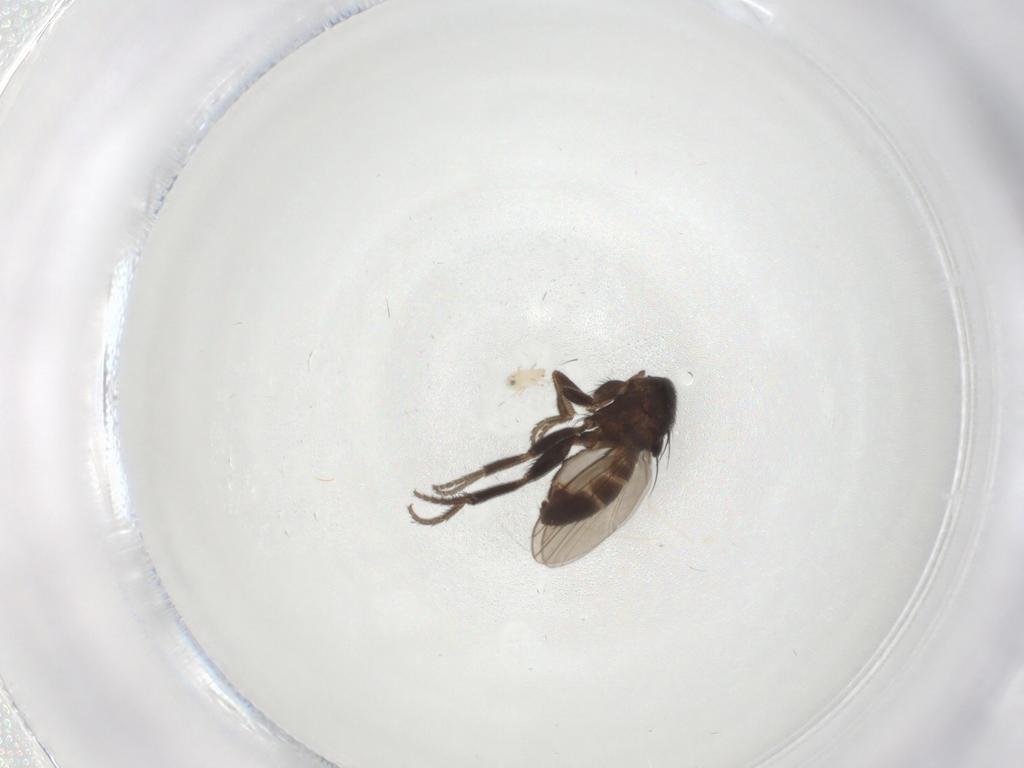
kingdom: Animalia
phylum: Arthropoda
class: Insecta
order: Diptera
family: Milichiidae
